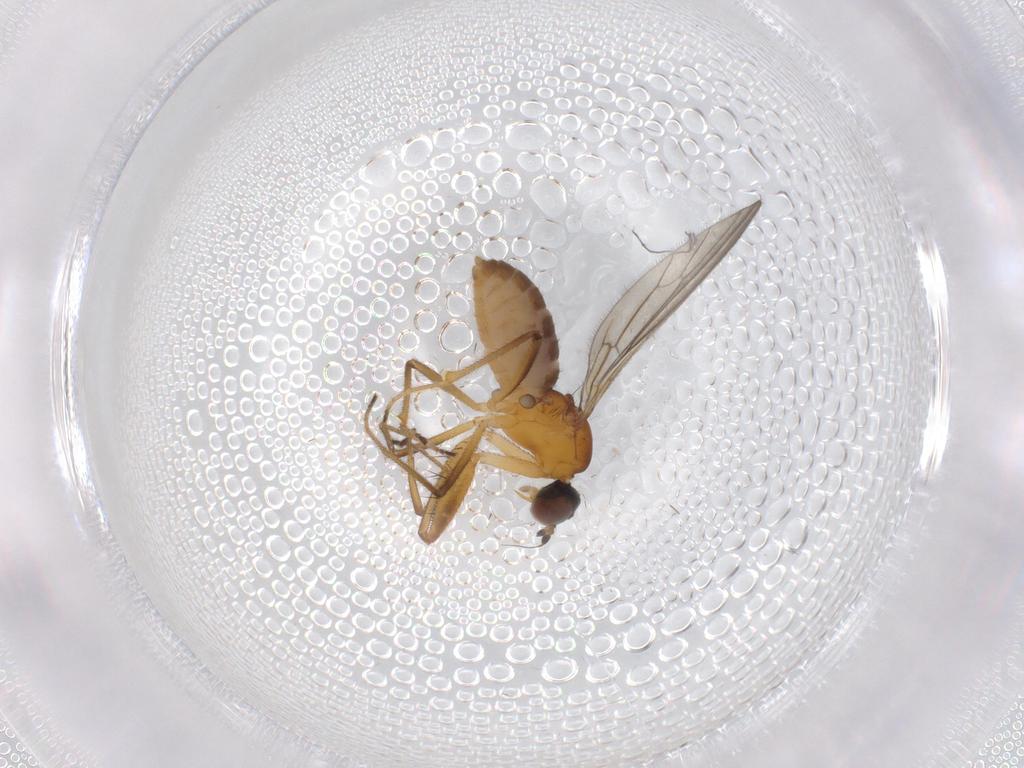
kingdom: Animalia
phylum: Arthropoda
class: Insecta
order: Diptera
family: Empididae
